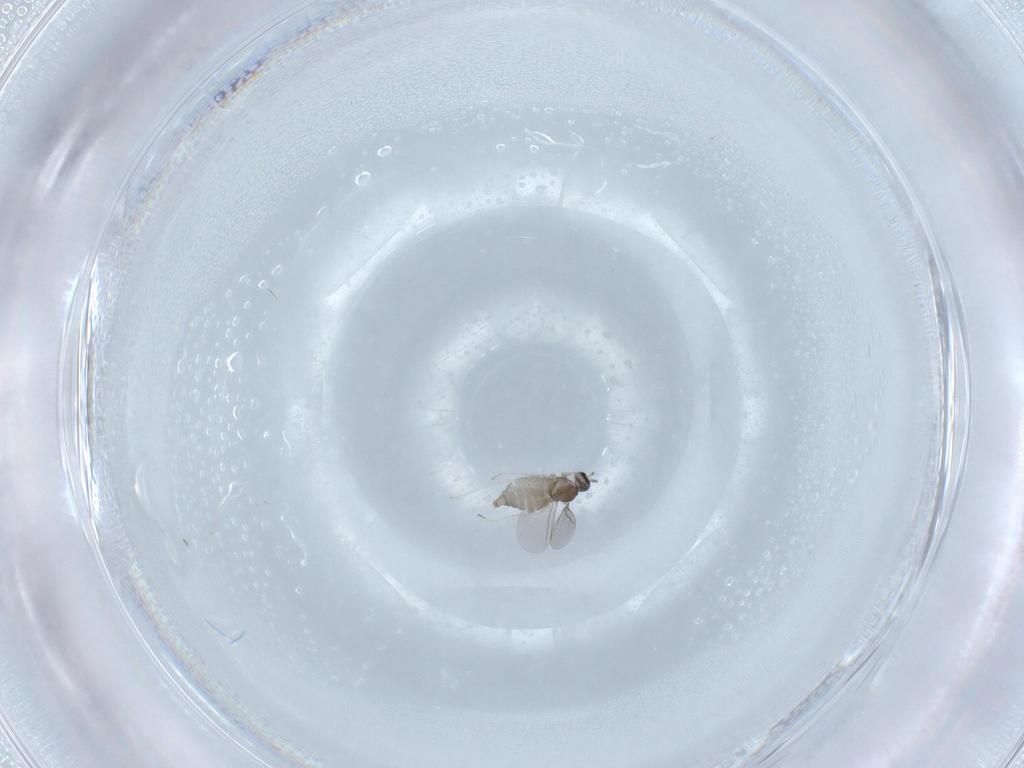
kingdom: Animalia
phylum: Arthropoda
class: Insecta
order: Diptera
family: Cecidomyiidae
